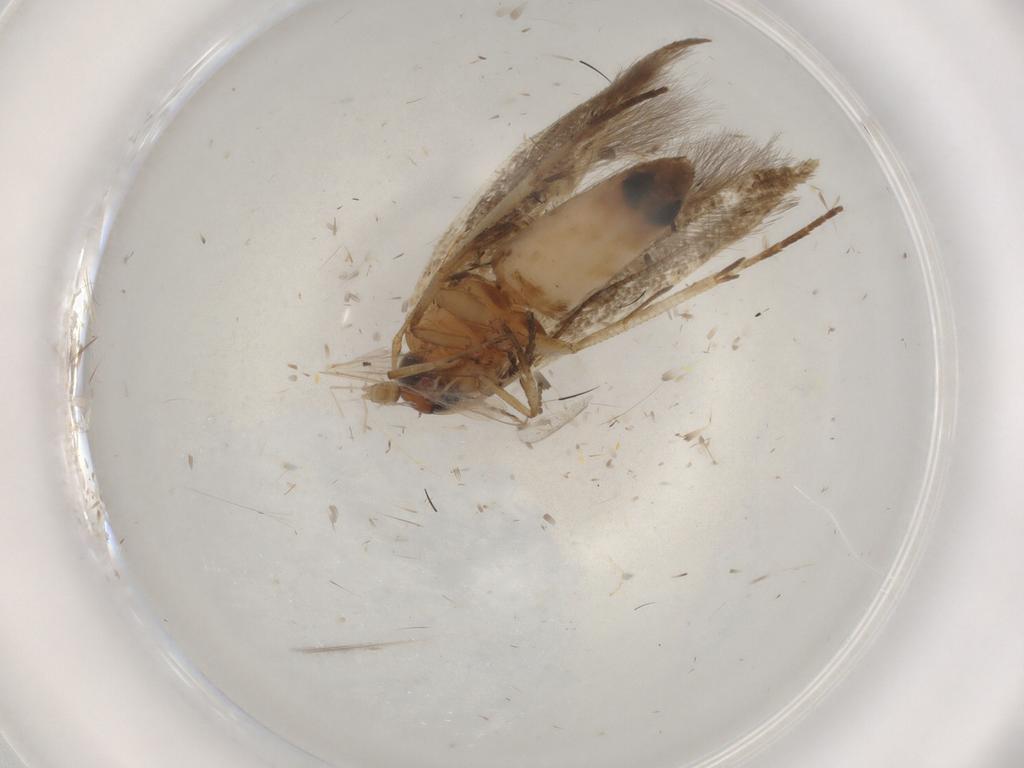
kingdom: Animalia
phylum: Arthropoda
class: Insecta
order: Lepidoptera
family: Cosmopterigidae
